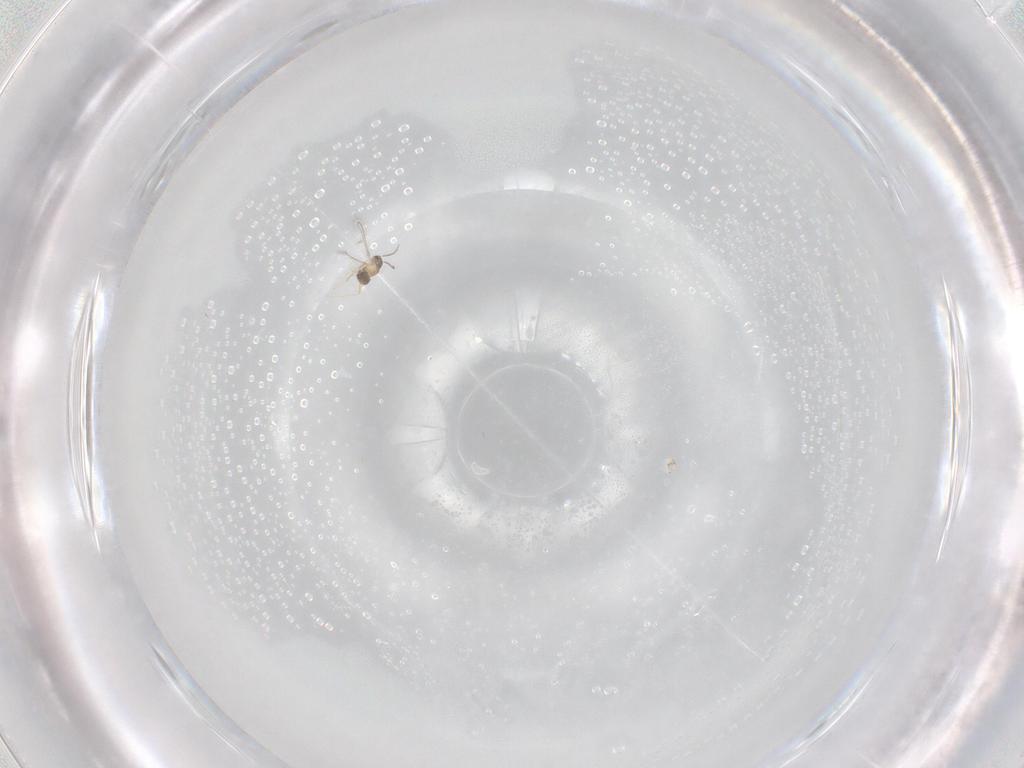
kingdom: Animalia
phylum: Arthropoda
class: Insecta
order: Hymenoptera
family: Mymaridae
